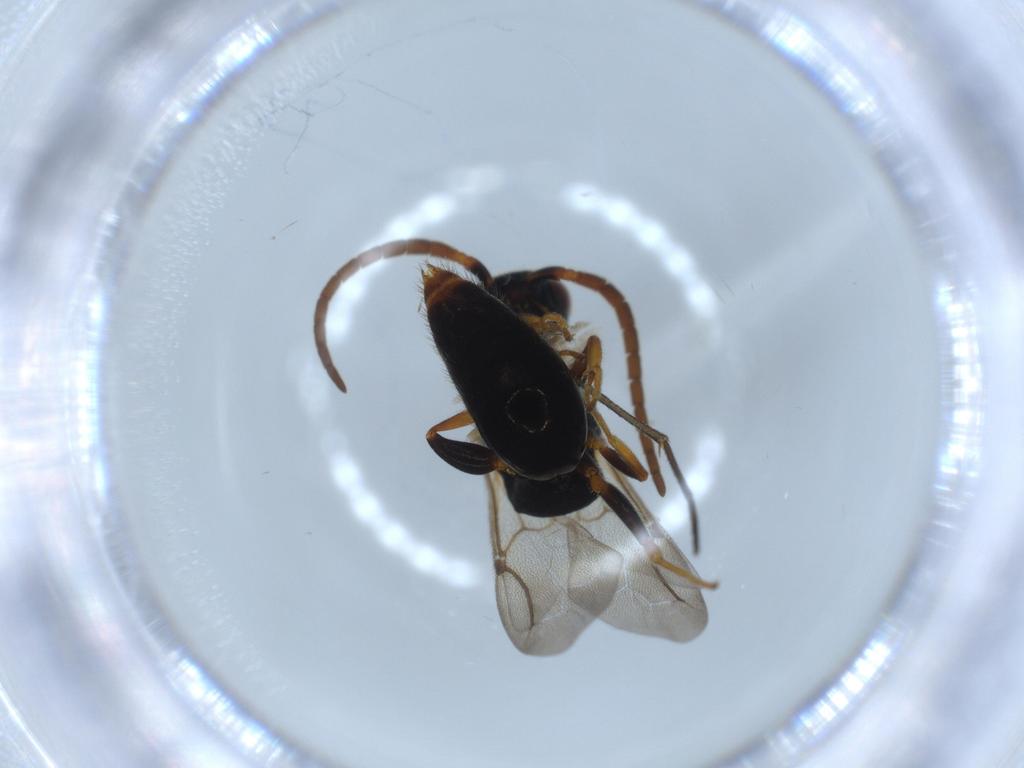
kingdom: Animalia
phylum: Arthropoda
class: Insecta
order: Hymenoptera
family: Bethylidae
